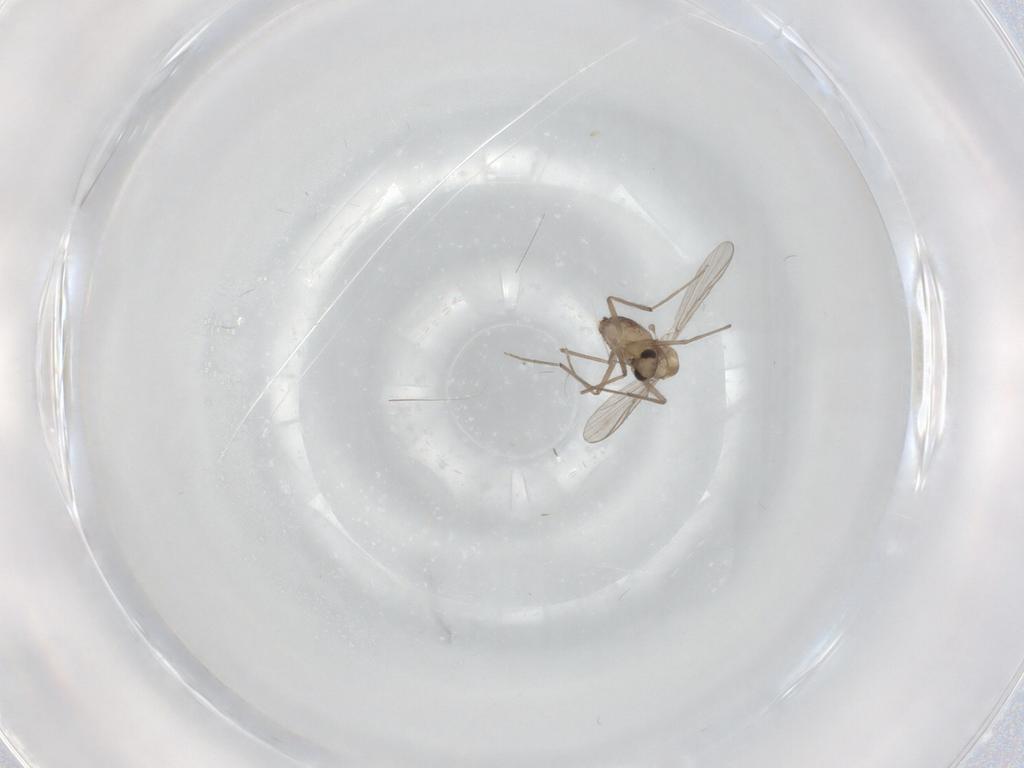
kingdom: Animalia
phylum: Arthropoda
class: Insecta
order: Diptera
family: Chironomidae
